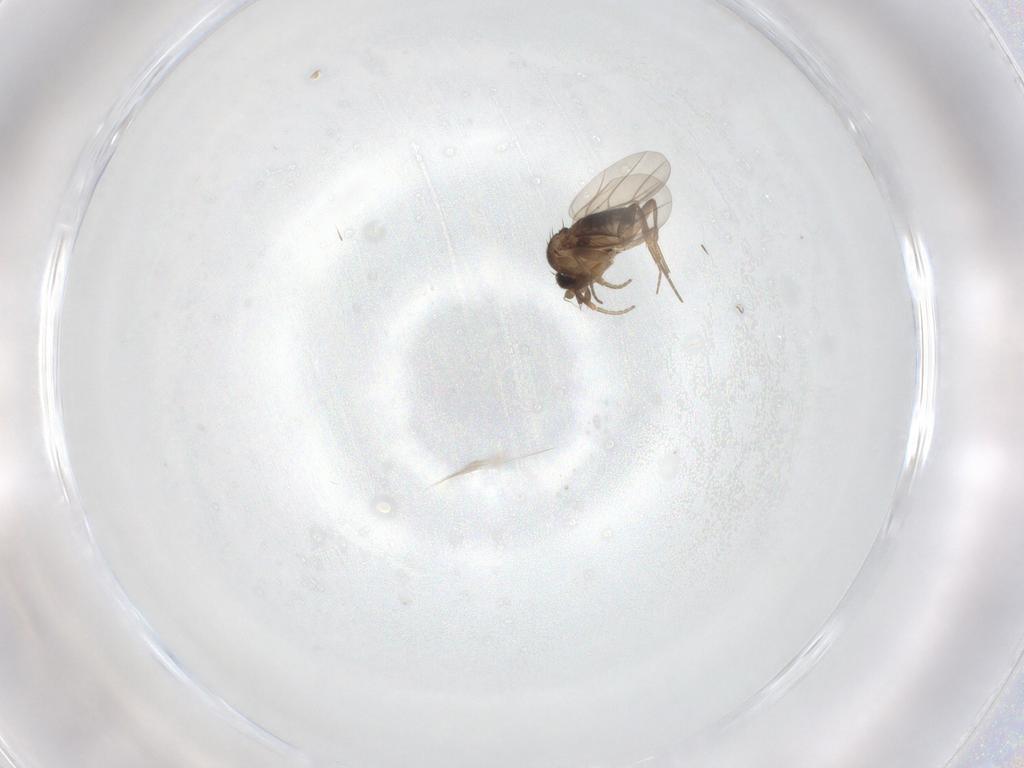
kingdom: Animalia
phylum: Arthropoda
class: Insecta
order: Diptera
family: Phoridae
